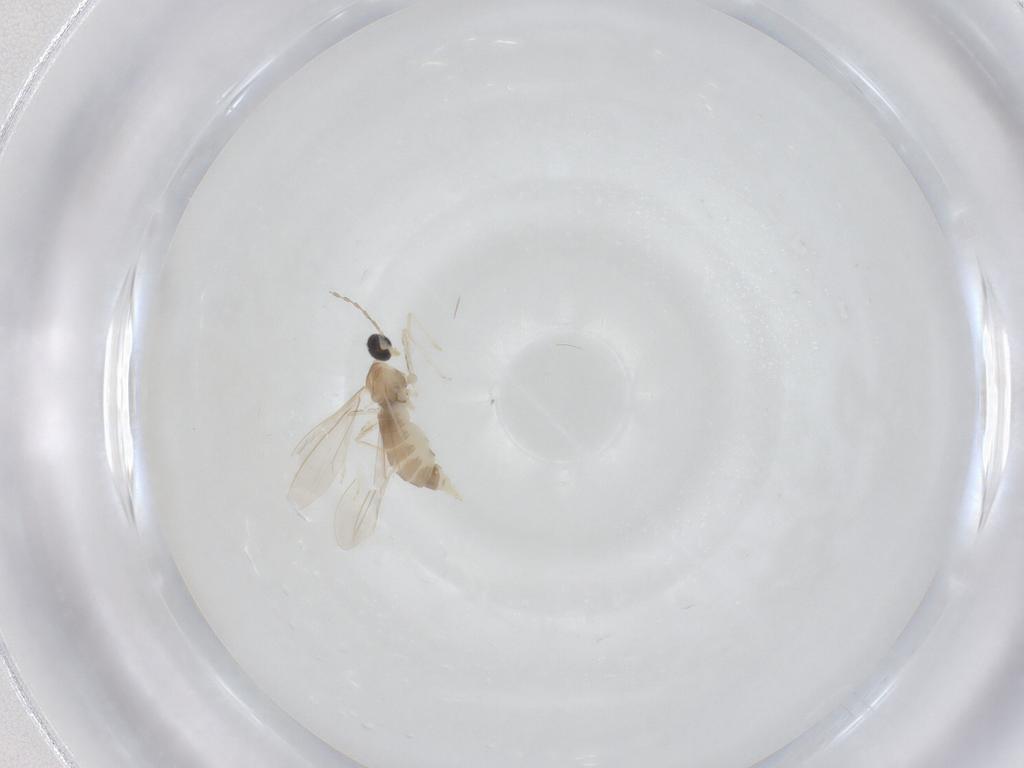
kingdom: Animalia
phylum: Arthropoda
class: Insecta
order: Diptera
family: Cecidomyiidae
